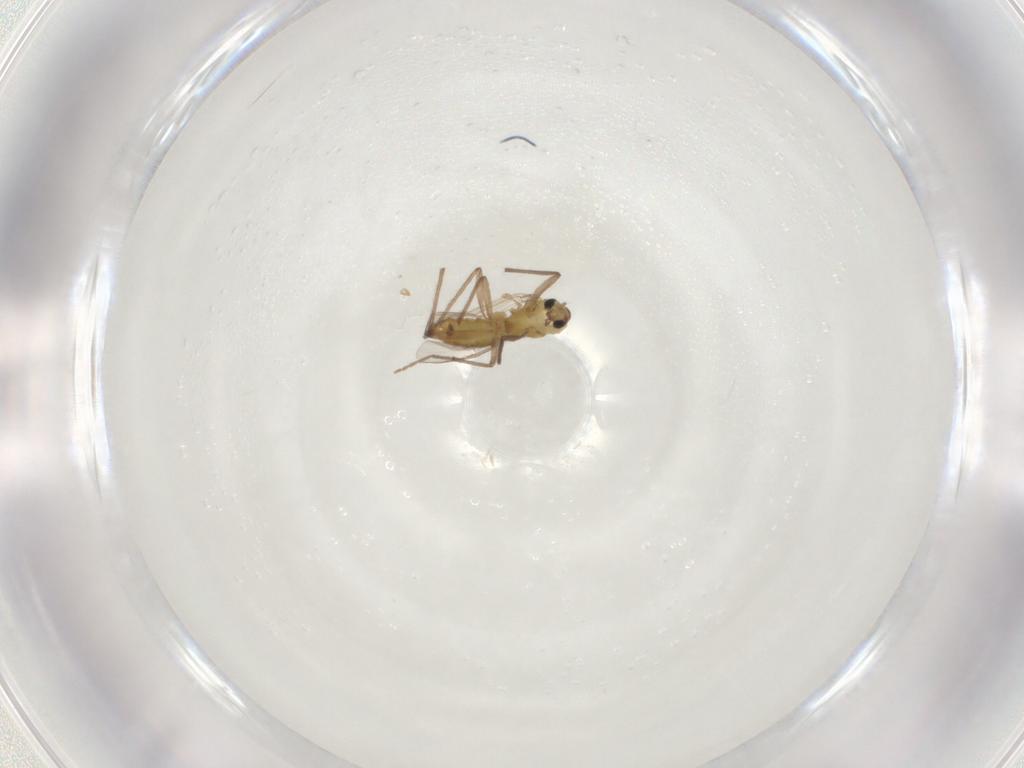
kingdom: Animalia
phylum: Arthropoda
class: Insecta
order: Diptera
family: Chironomidae
